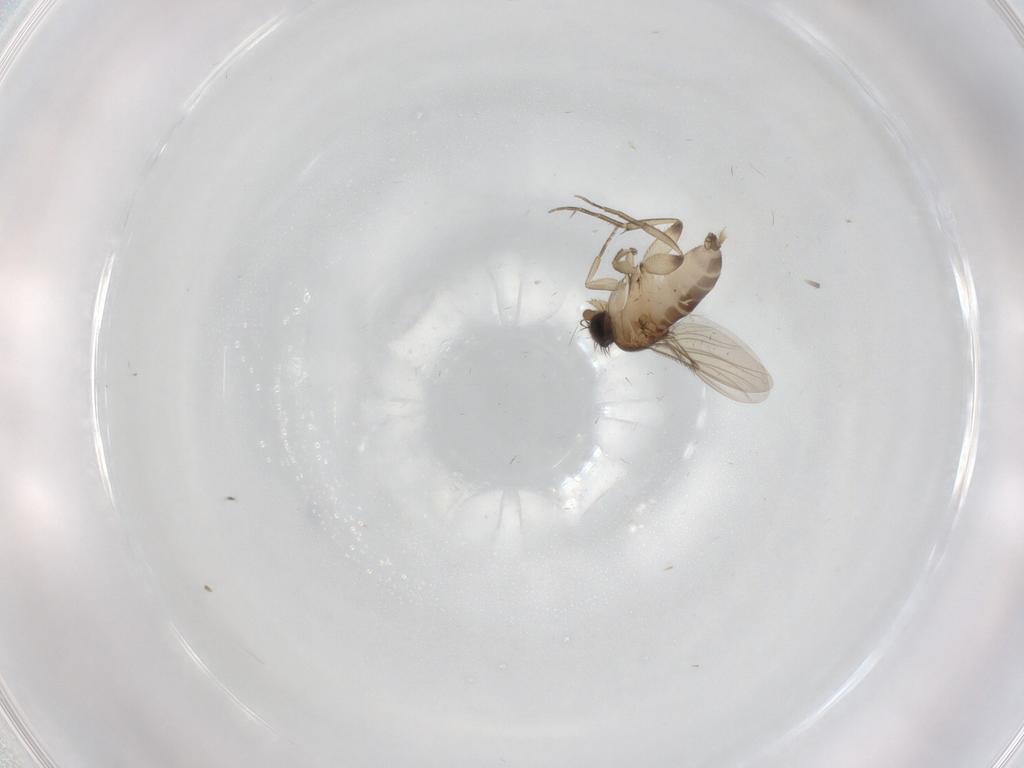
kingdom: Animalia
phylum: Arthropoda
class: Insecta
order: Diptera
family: Phoridae
